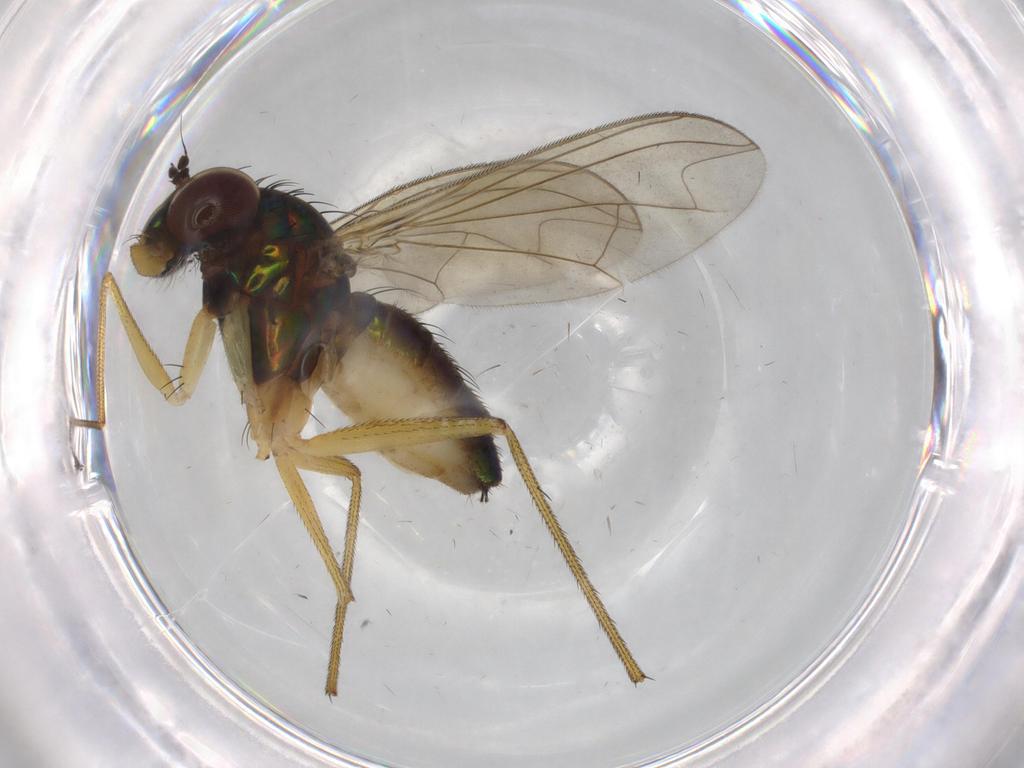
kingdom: Animalia
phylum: Arthropoda
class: Insecta
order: Diptera
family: Dolichopodidae
